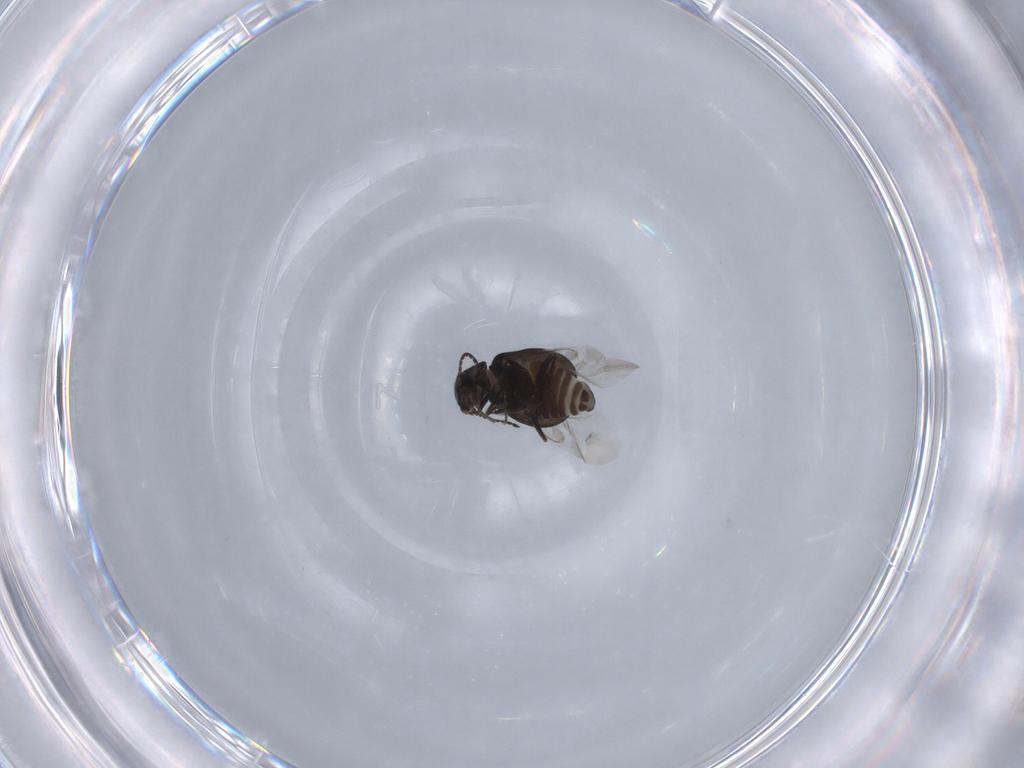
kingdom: Animalia
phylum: Arthropoda
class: Insecta
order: Coleoptera
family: Melyridae
